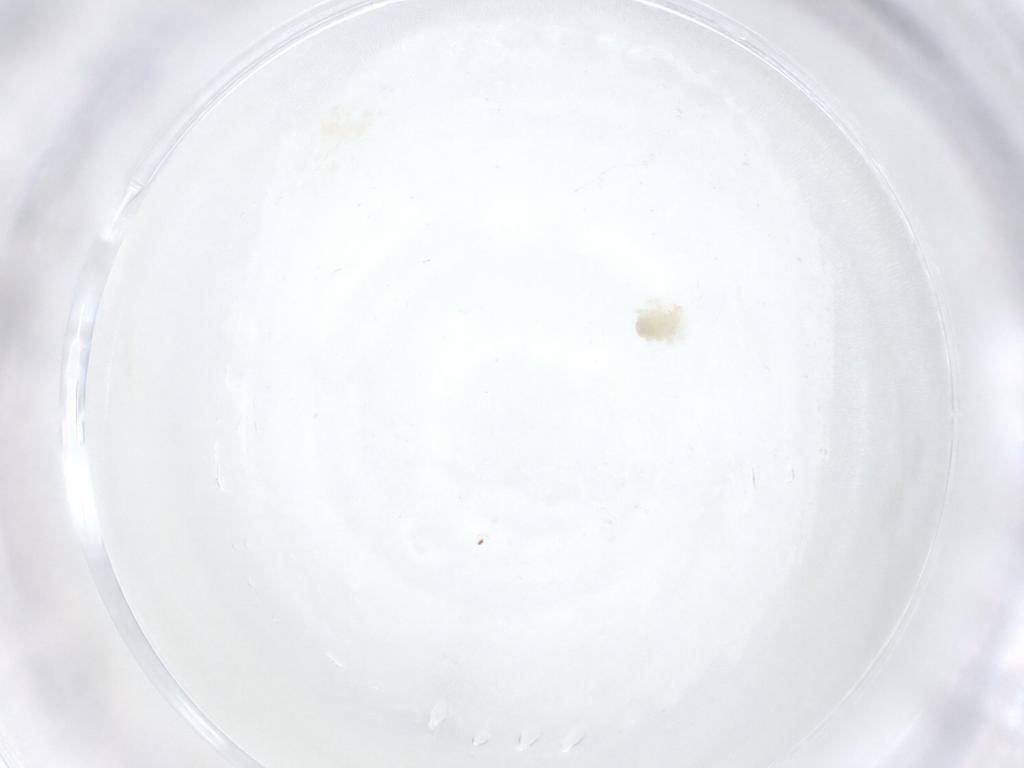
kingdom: Animalia
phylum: Arthropoda
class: Arachnida
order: Trombidiformes
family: Anystidae
